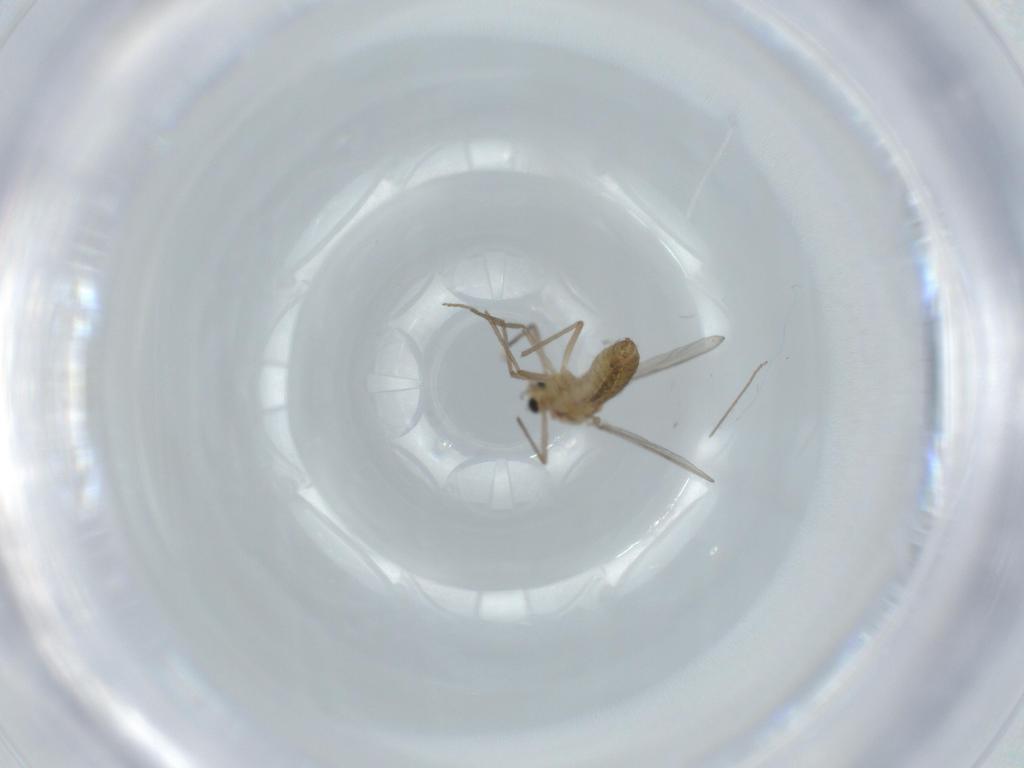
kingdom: Animalia
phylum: Arthropoda
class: Insecta
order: Diptera
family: Chironomidae
